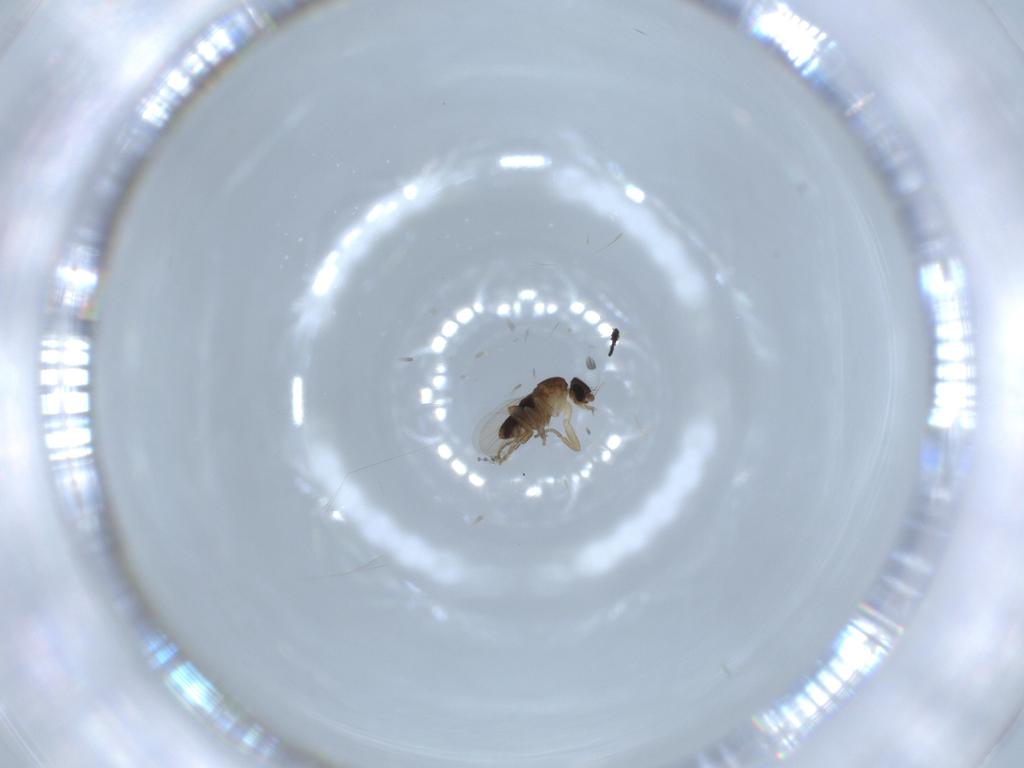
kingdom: Animalia
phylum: Arthropoda
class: Insecta
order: Diptera
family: Phoridae
